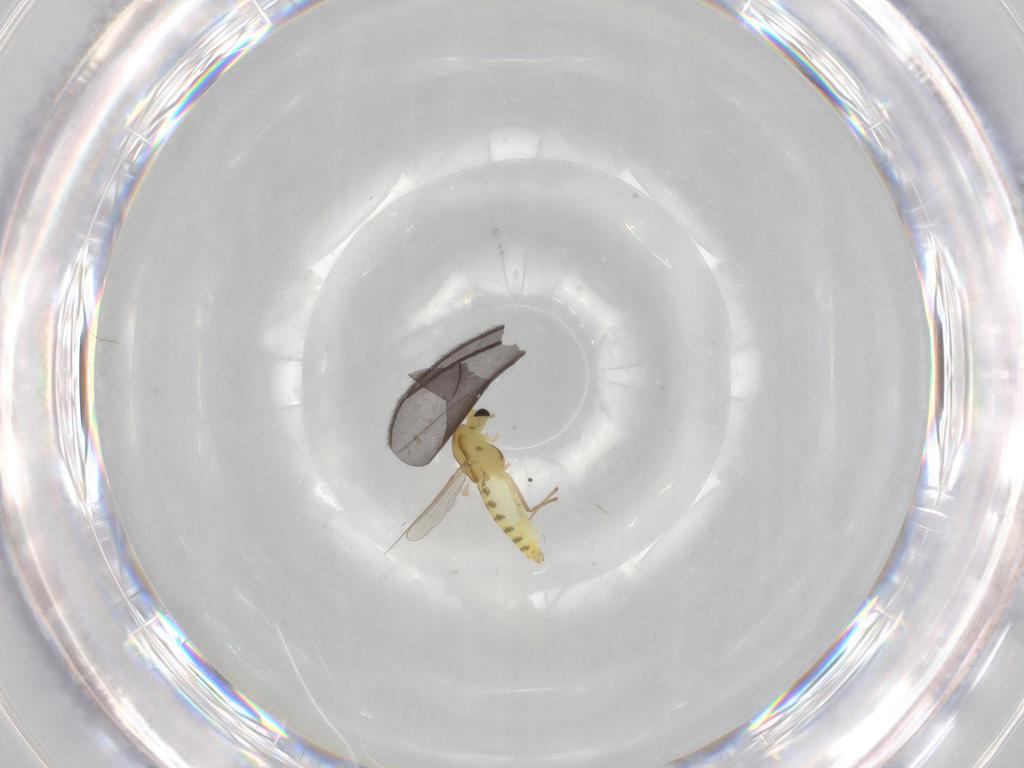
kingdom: Animalia
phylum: Arthropoda
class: Insecta
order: Diptera
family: Chironomidae
